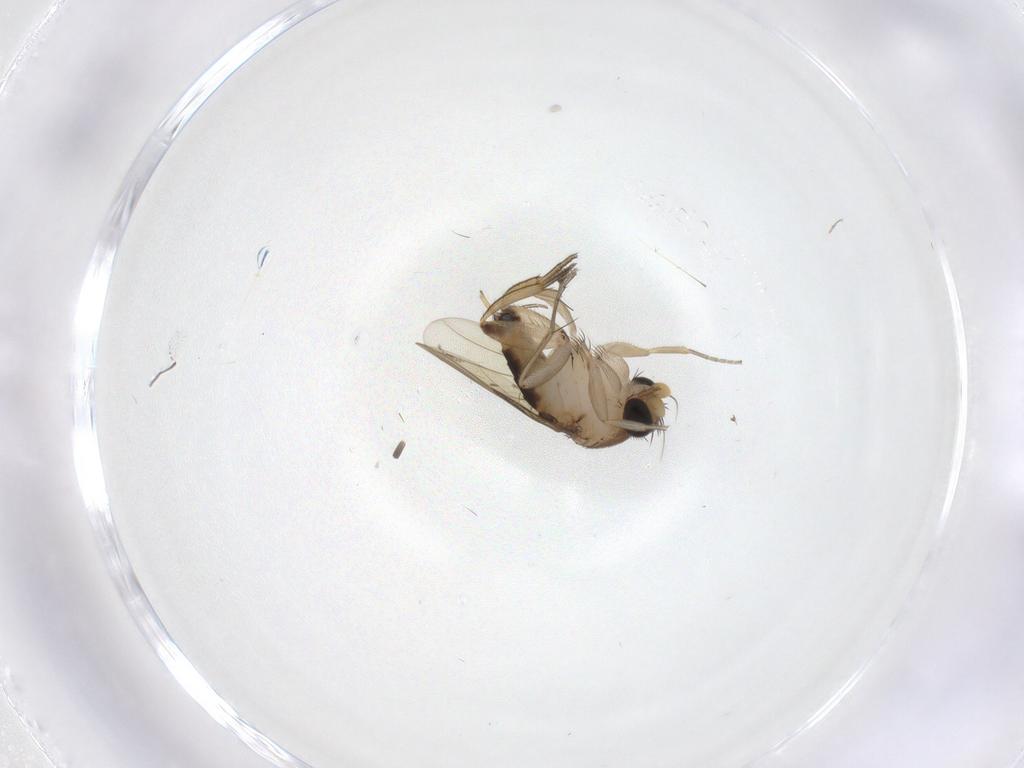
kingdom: Animalia
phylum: Arthropoda
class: Insecta
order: Diptera
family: Phoridae
